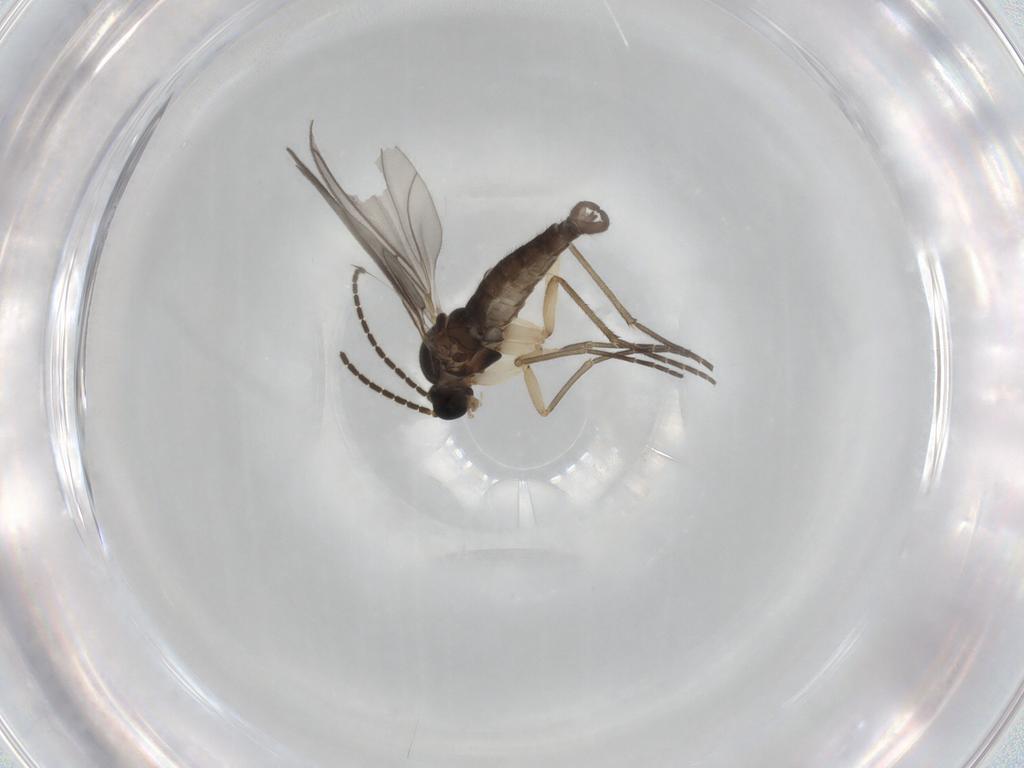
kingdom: Animalia
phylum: Arthropoda
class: Insecta
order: Diptera
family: Sciaridae
